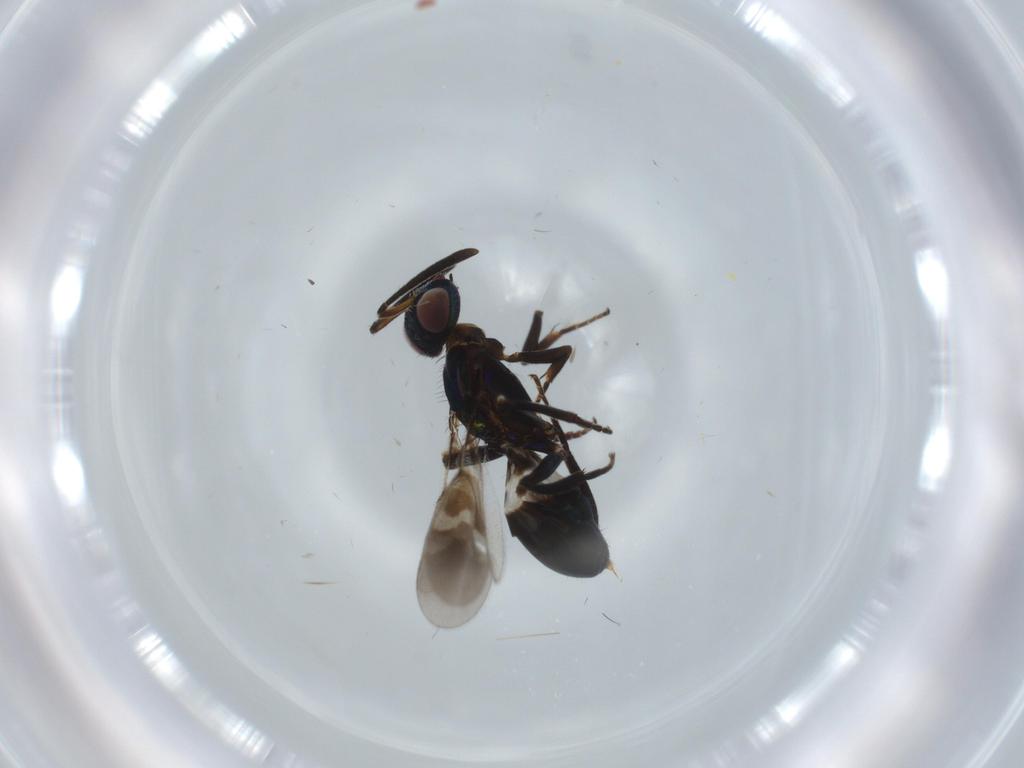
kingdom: Animalia
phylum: Arthropoda
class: Insecta
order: Hymenoptera
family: Eupelmidae
